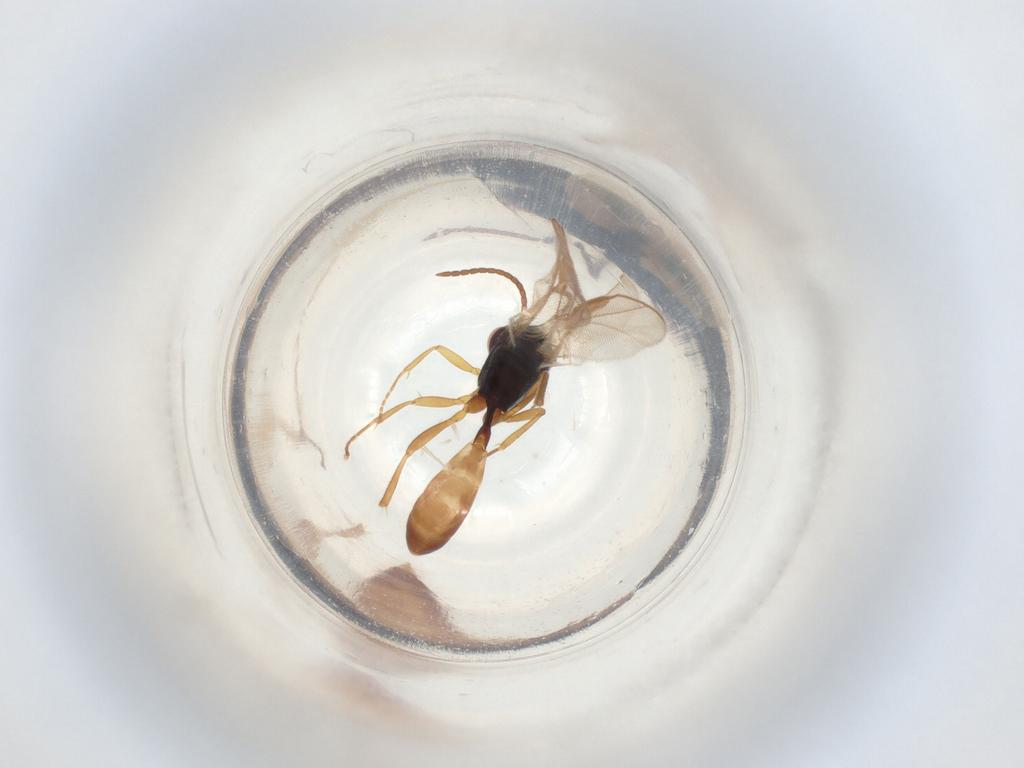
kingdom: Animalia
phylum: Arthropoda
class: Insecta
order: Hymenoptera
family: Ichneumonidae
